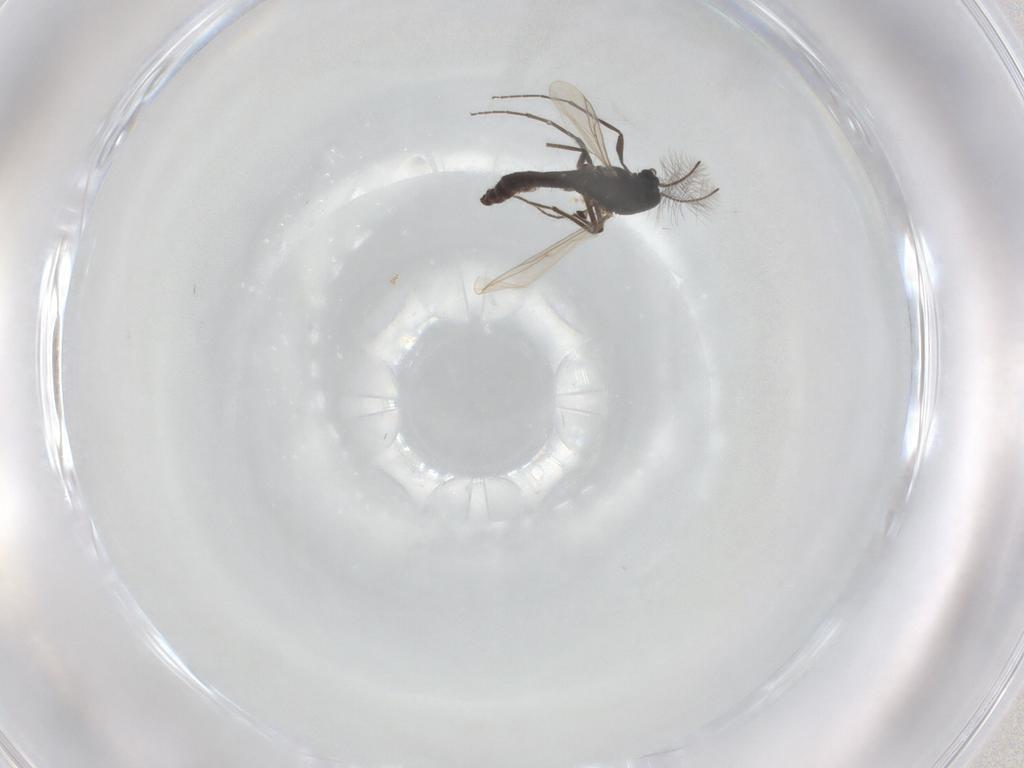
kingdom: Animalia
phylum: Arthropoda
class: Insecta
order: Diptera
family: Chironomidae
